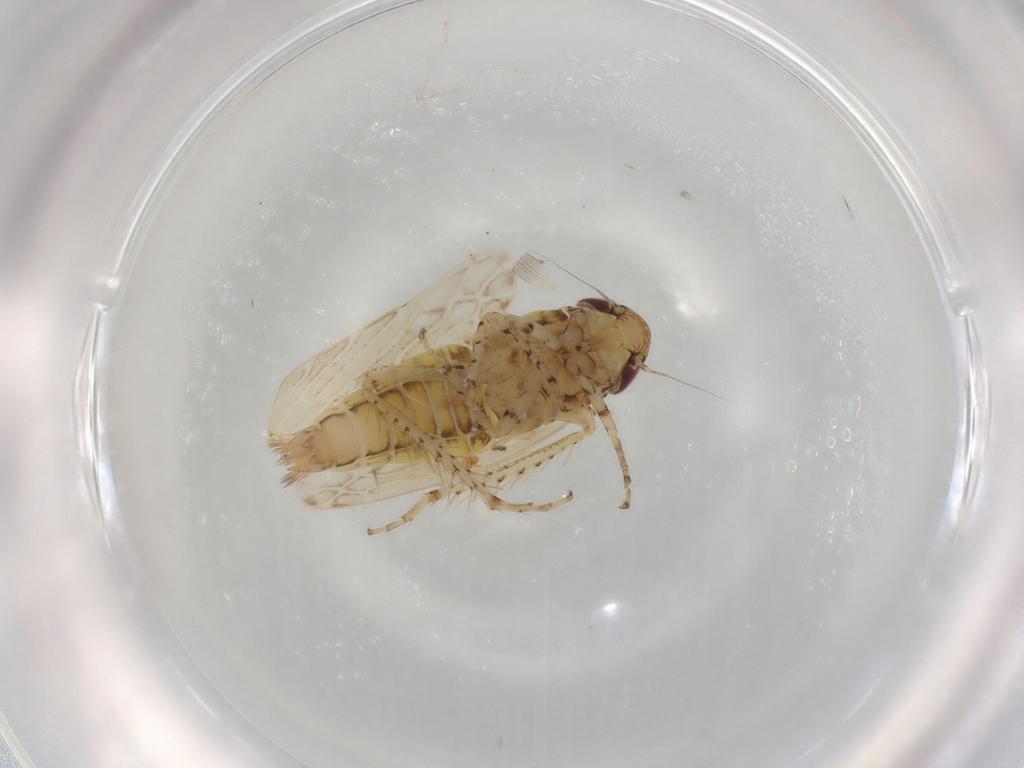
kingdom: Animalia
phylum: Arthropoda
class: Insecta
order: Hemiptera
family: Cicadellidae
